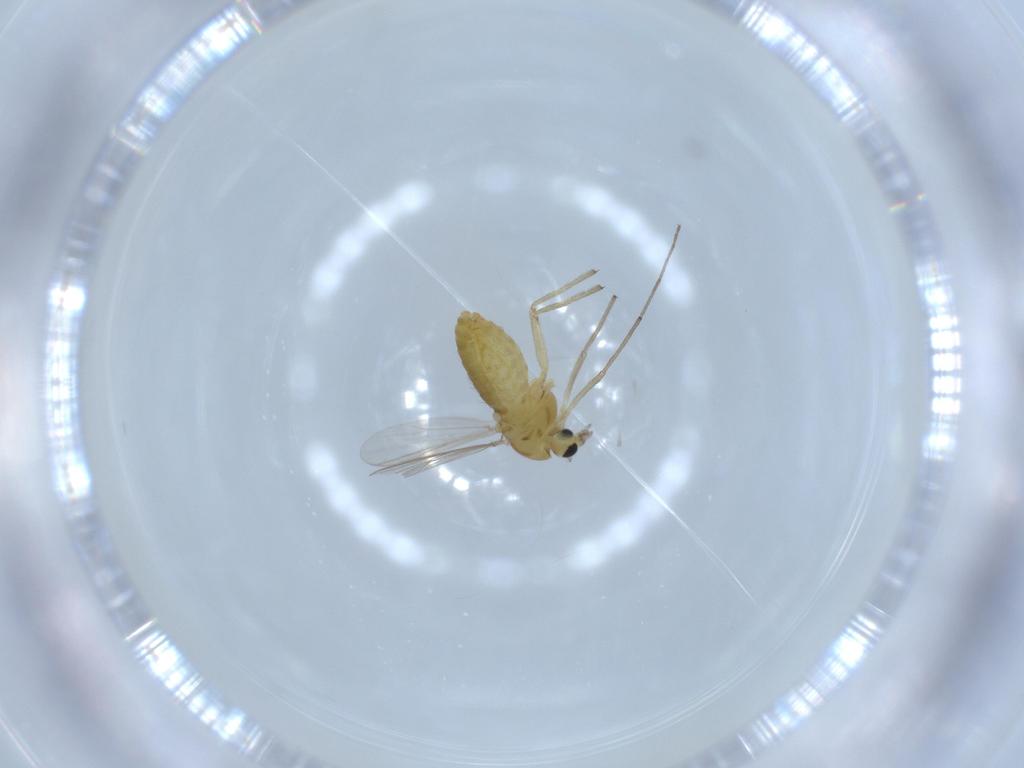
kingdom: Animalia
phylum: Arthropoda
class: Insecta
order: Diptera
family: Chironomidae
